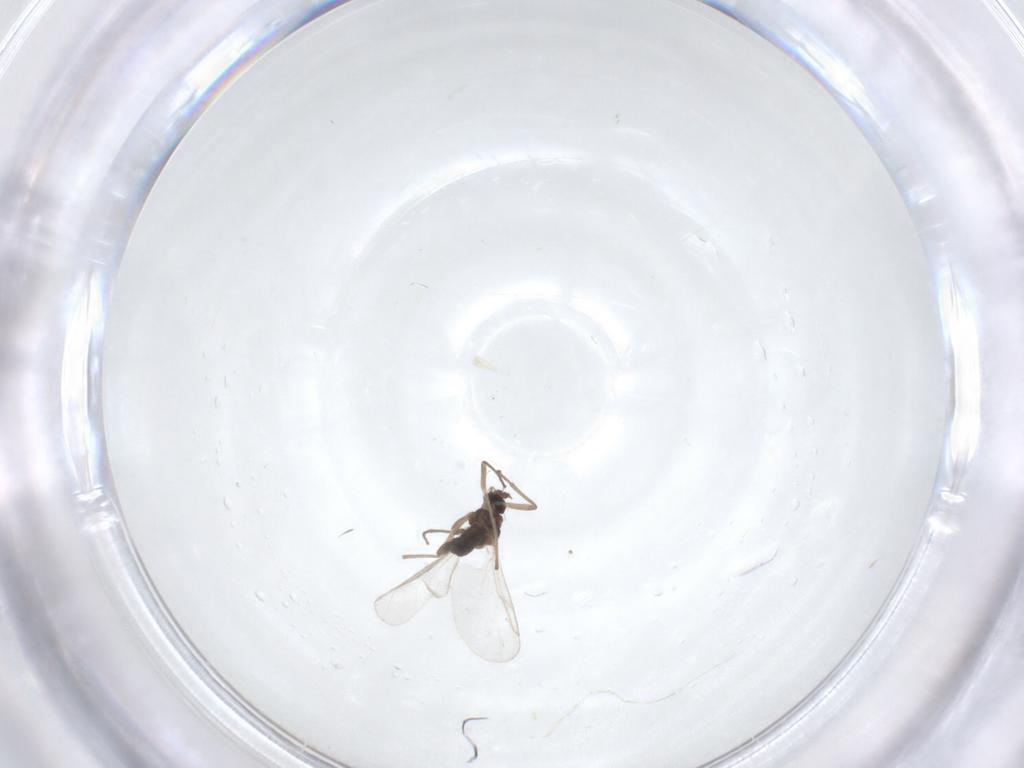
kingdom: Animalia
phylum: Arthropoda
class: Insecta
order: Diptera
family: Cecidomyiidae
